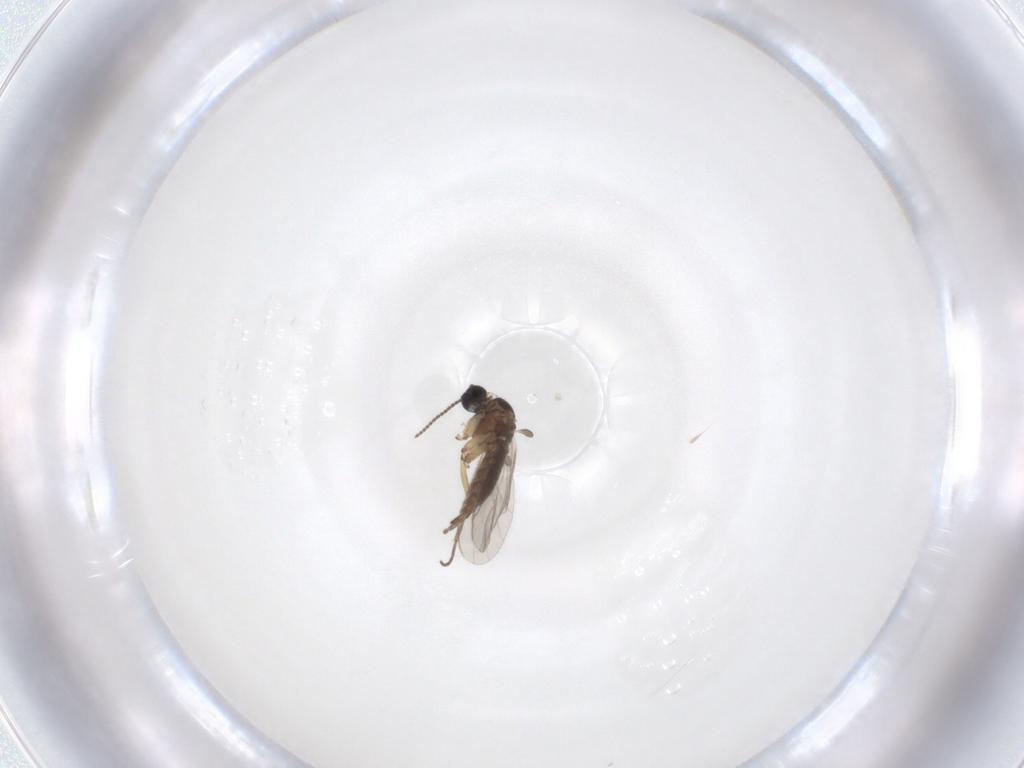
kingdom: Animalia
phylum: Arthropoda
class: Insecta
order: Diptera
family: Sciaridae
